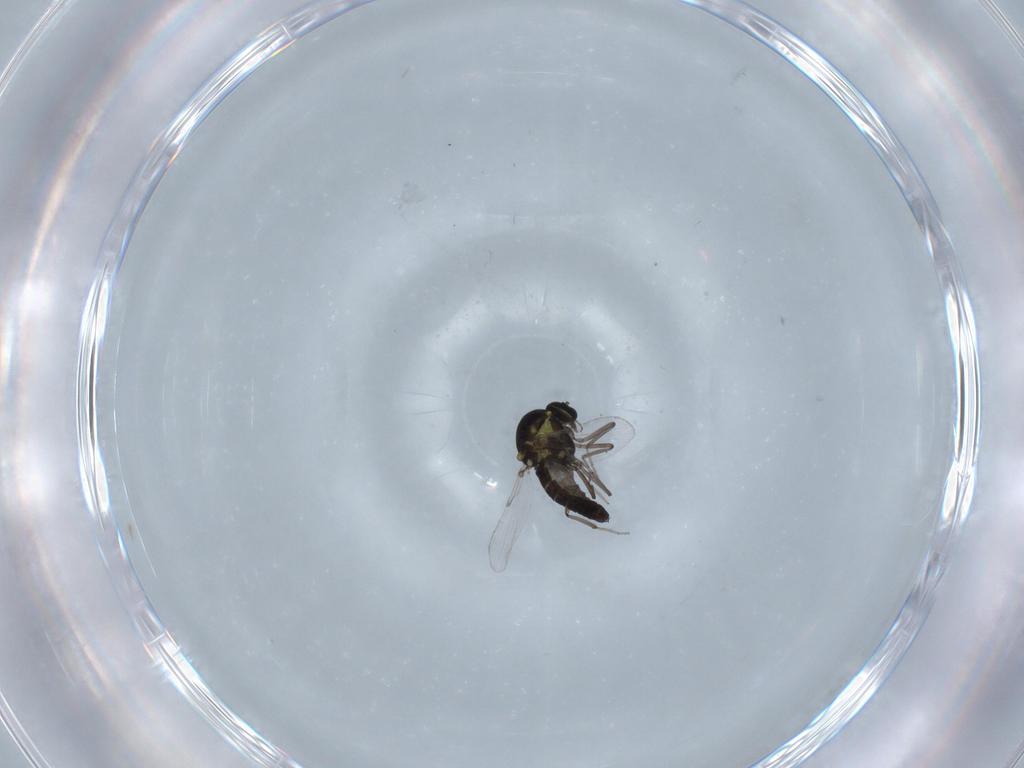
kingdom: Animalia
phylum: Arthropoda
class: Insecta
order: Diptera
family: Ceratopogonidae
